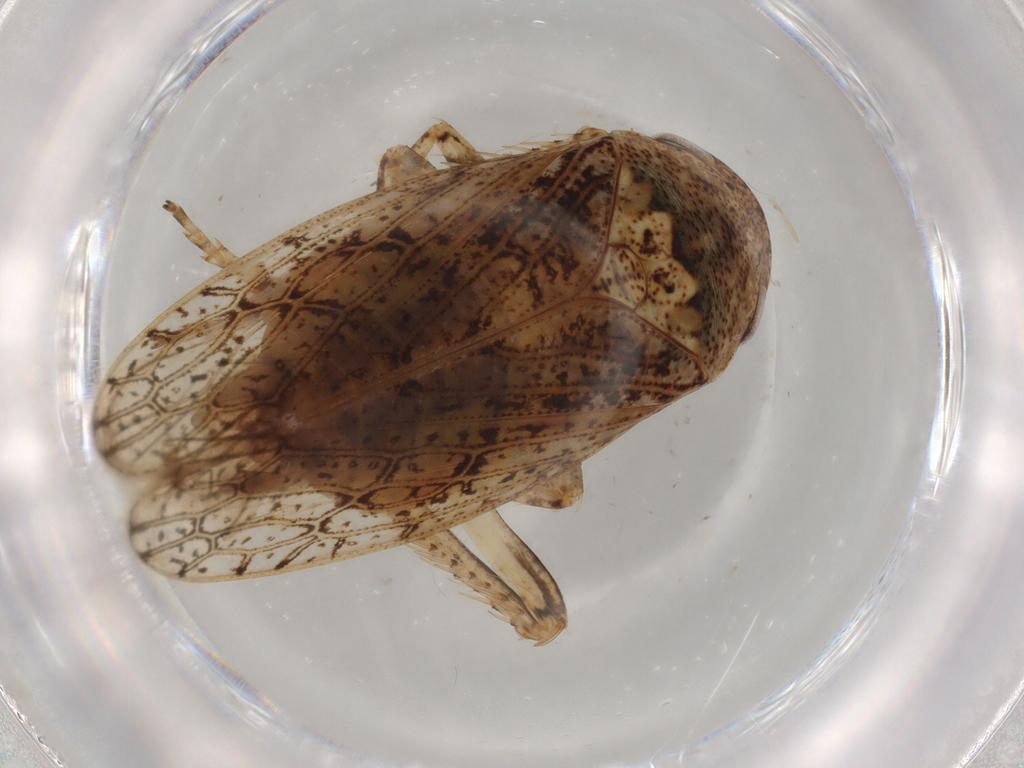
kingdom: Animalia
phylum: Arthropoda
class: Insecta
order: Hemiptera
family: Cicadellidae
